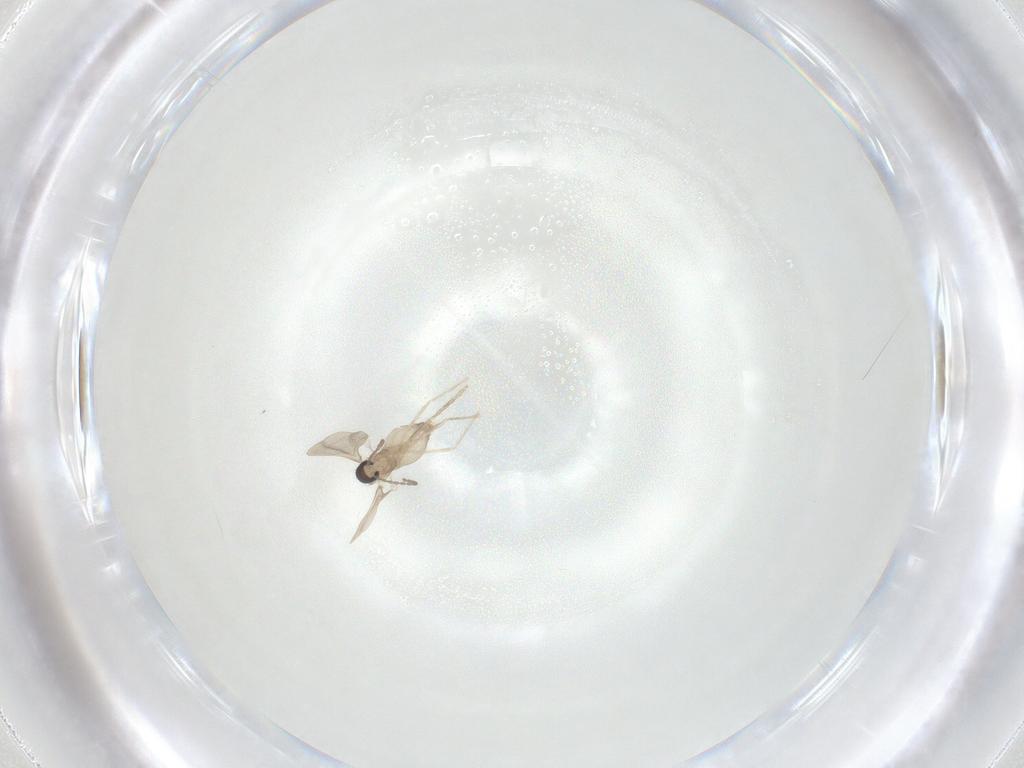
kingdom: Animalia
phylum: Arthropoda
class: Insecta
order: Diptera
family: Cecidomyiidae
